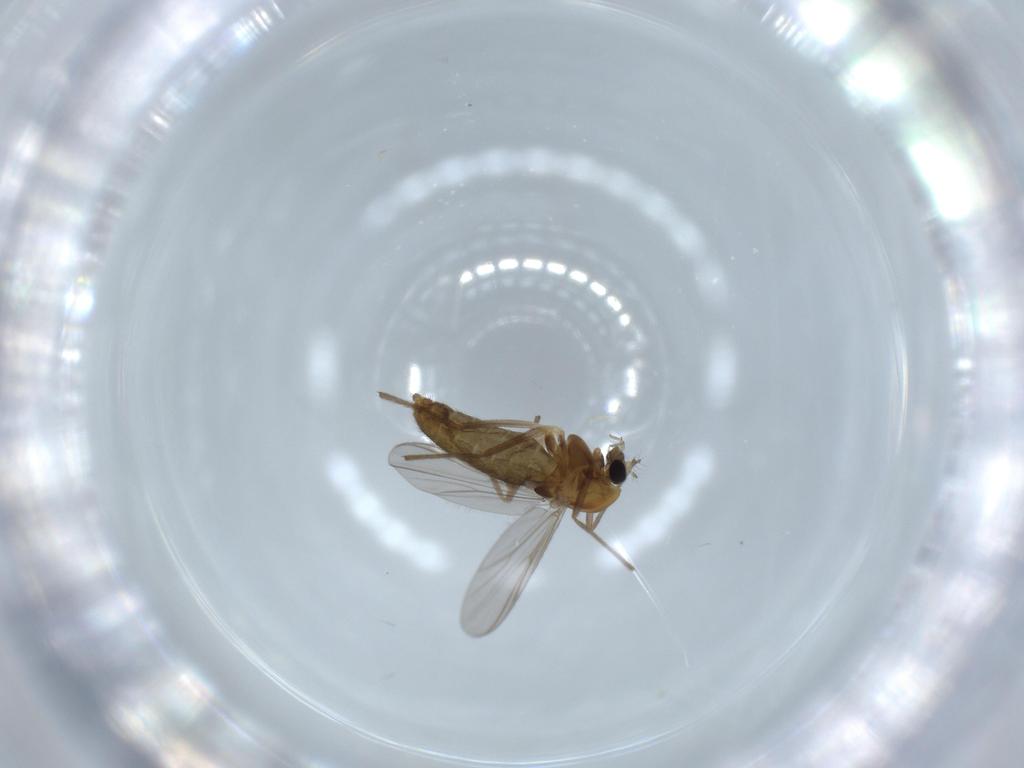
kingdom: Animalia
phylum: Arthropoda
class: Insecta
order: Diptera
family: Chironomidae
